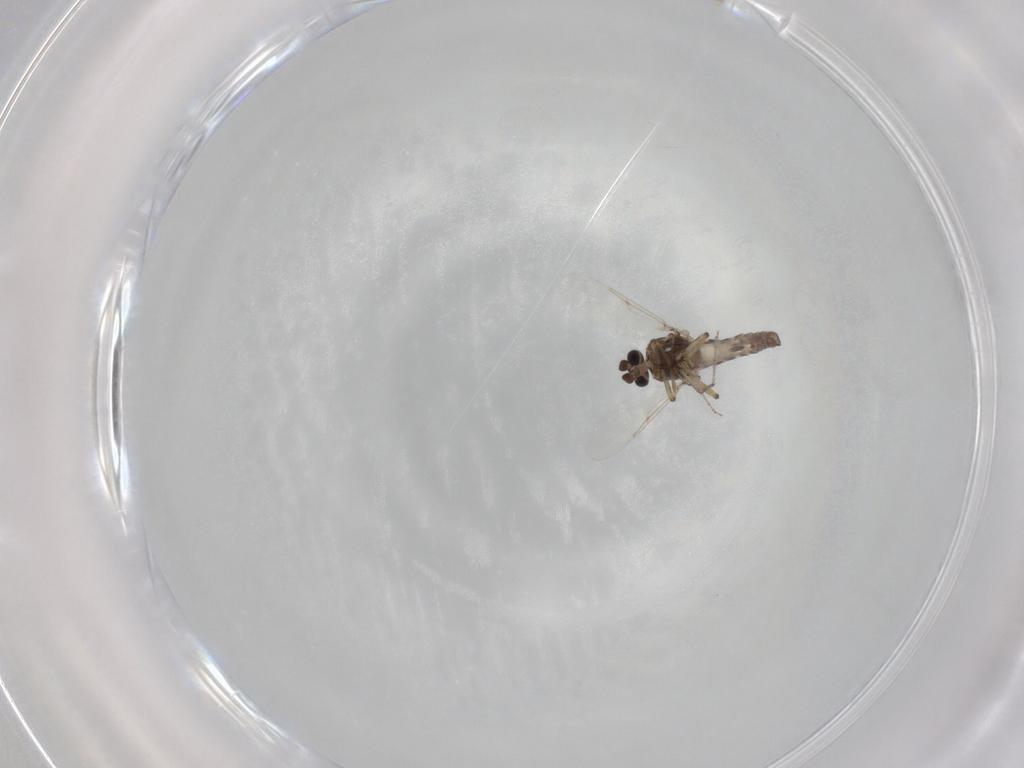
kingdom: Animalia
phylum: Arthropoda
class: Insecta
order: Diptera
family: Ceratopogonidae
